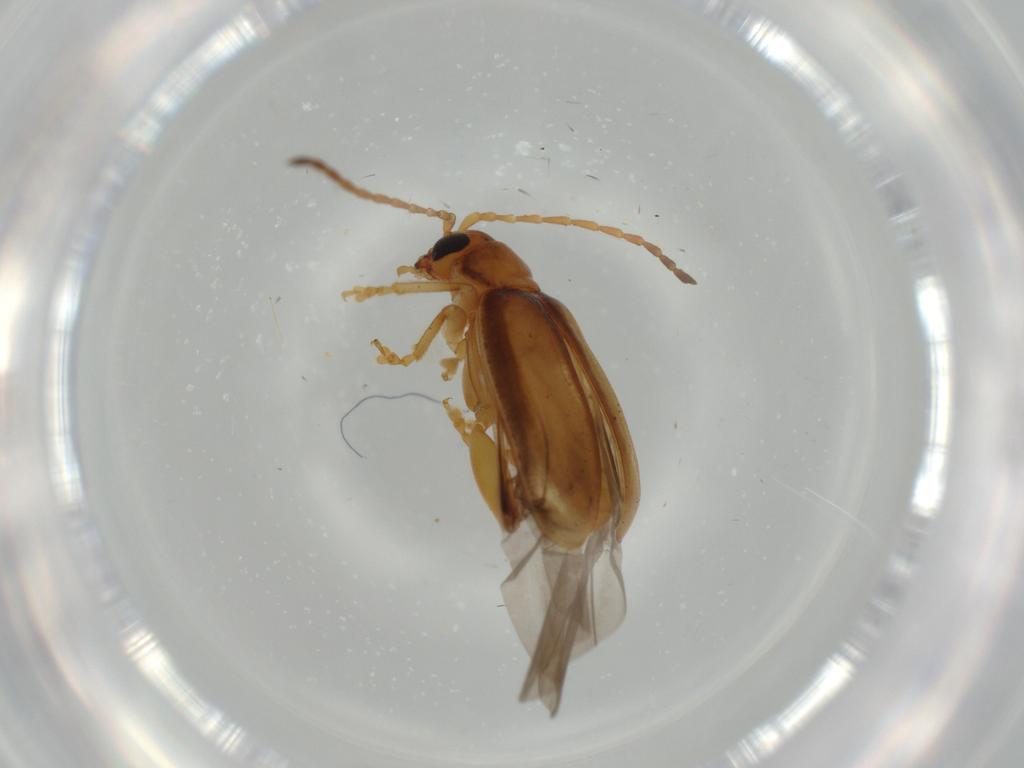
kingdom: Animalia
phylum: Arthropoda
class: Insecta
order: Coleoptera
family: Chrysomelidae
